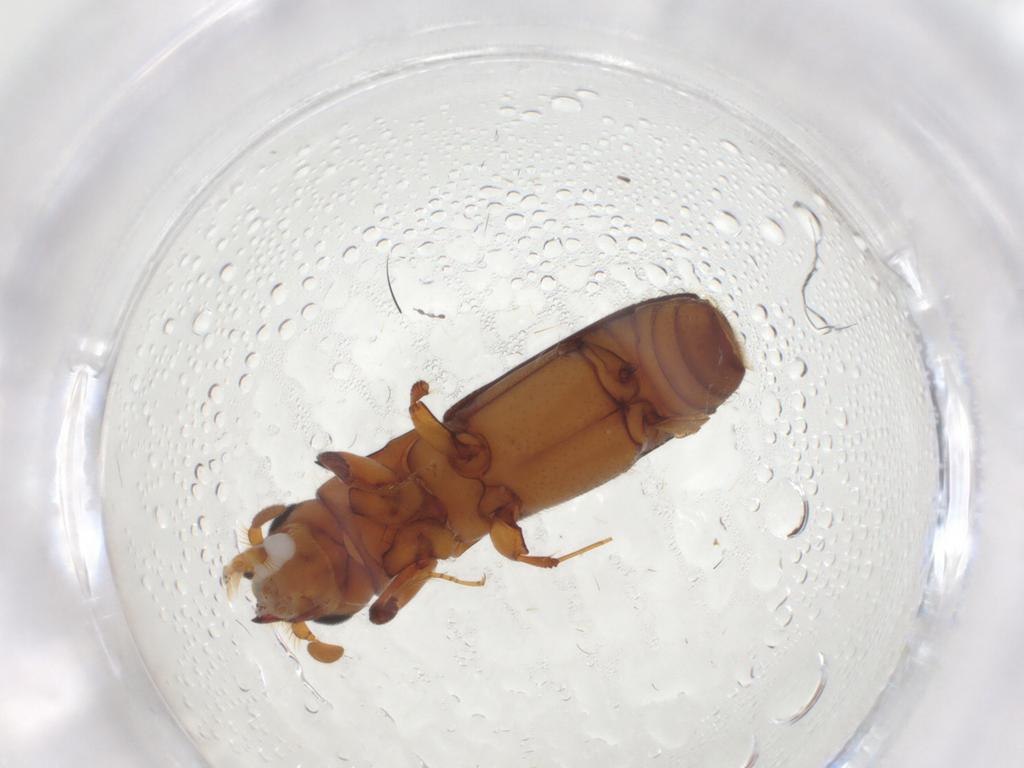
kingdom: Animalia
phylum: Arthropoda
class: Insecta
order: Coleoptera
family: Curculionidae
